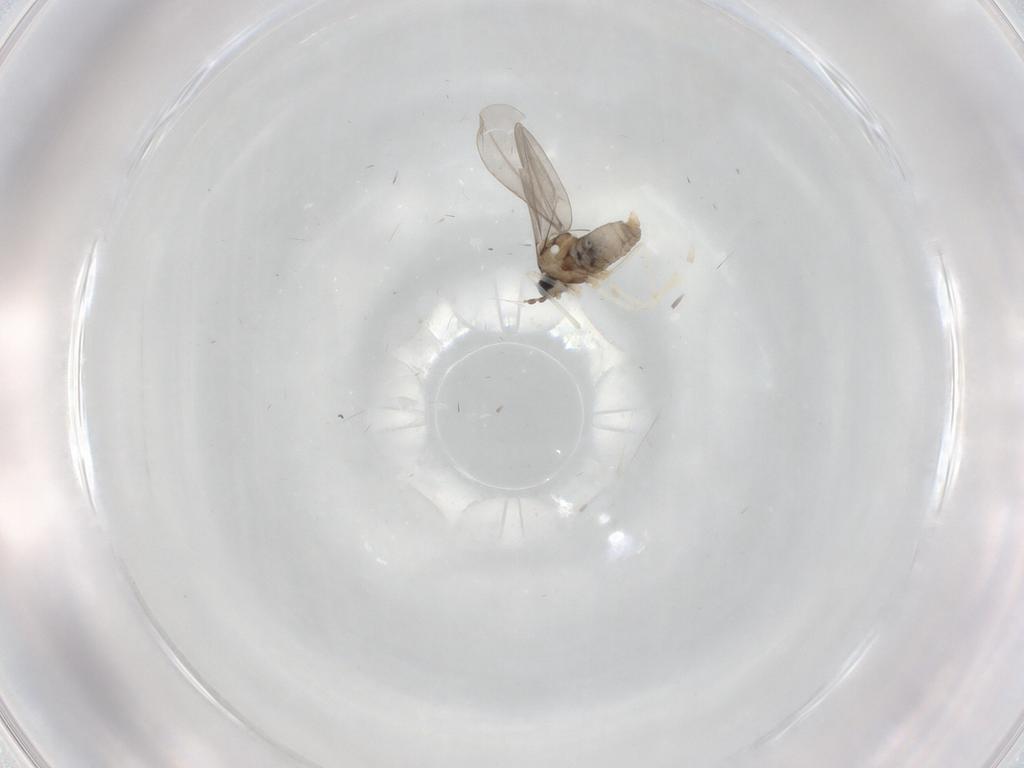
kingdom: Animalia
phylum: Arthropoda
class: Insecta
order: Diptera
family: Cecidomyiidae
